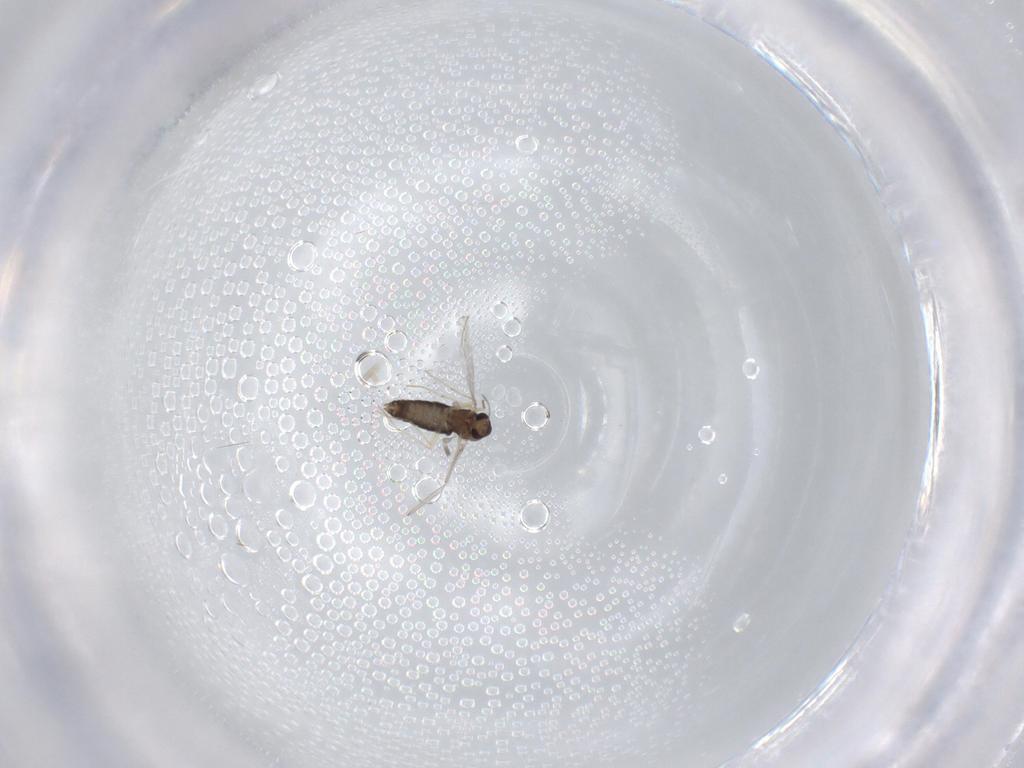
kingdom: Animalia
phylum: Arthropoda
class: Insecta
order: Diptera
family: Chironomidae
